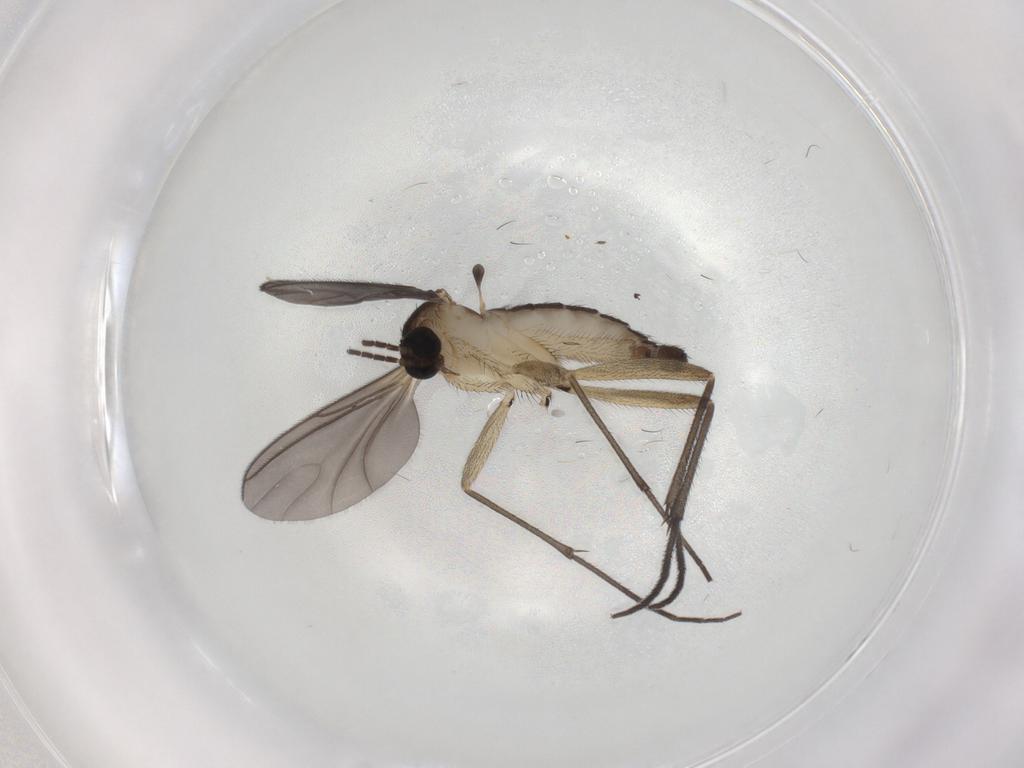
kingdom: Animalia
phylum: Arthropoda
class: Insecta
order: Diptera
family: Sciaridae
